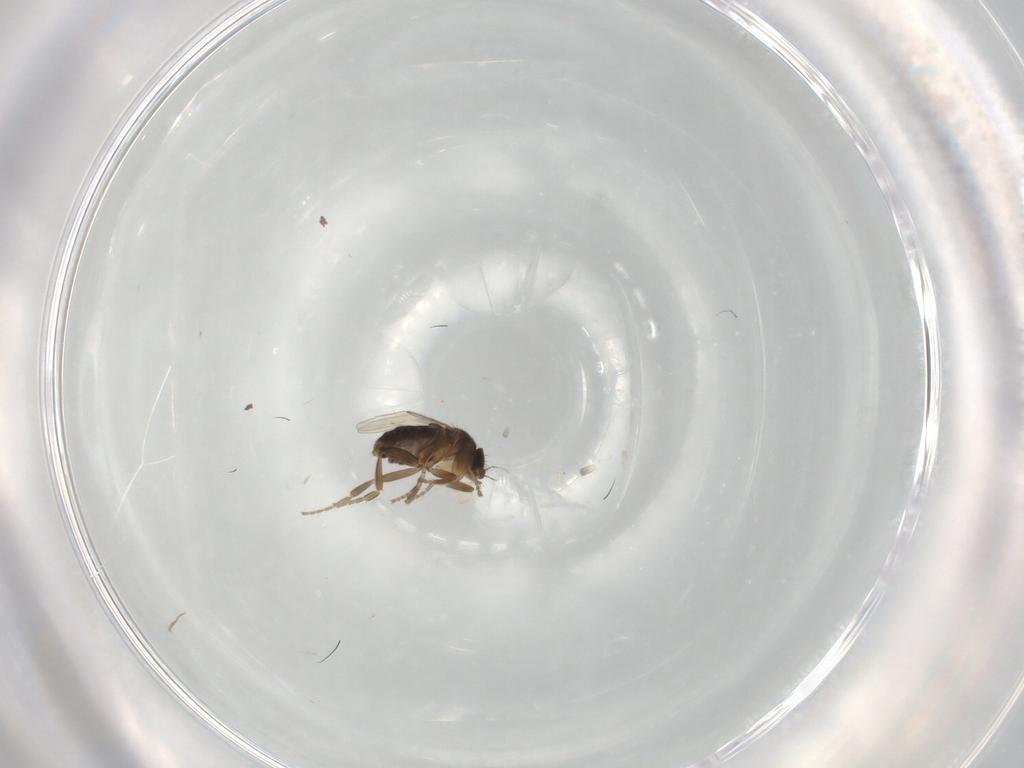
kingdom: Animalia
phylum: Arthropoda
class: Insecta
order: Diptera
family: Phoridae
